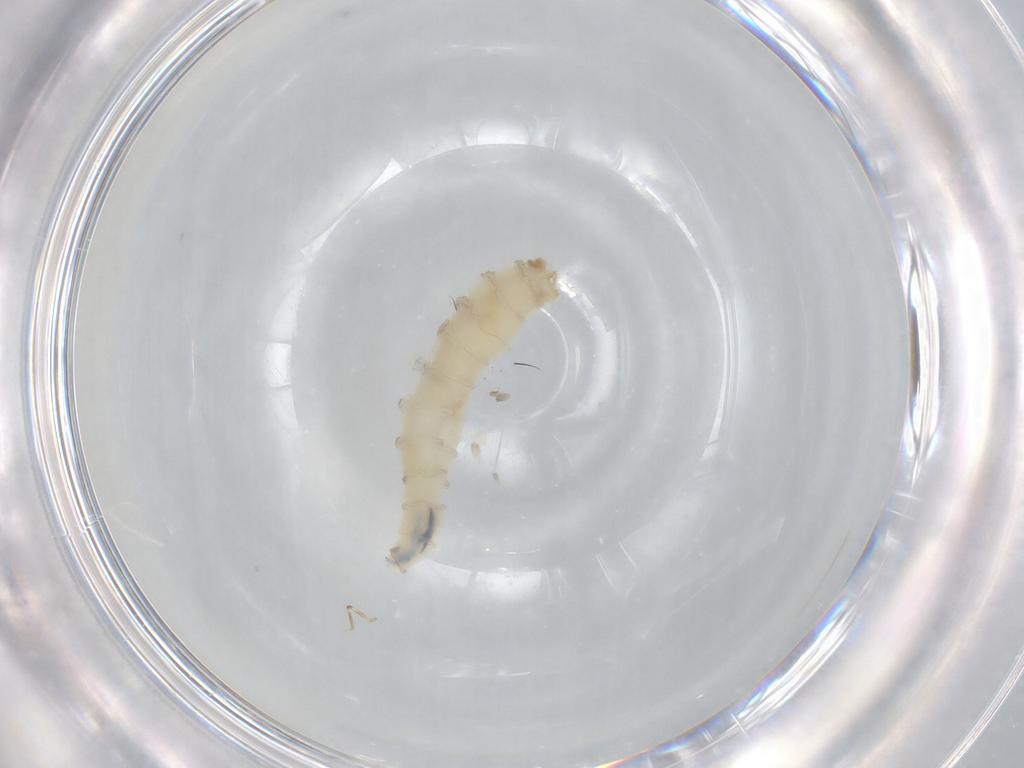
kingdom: Animalia
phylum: Arthropoda
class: Insecta
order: Diptera
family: Sarcophagidae
